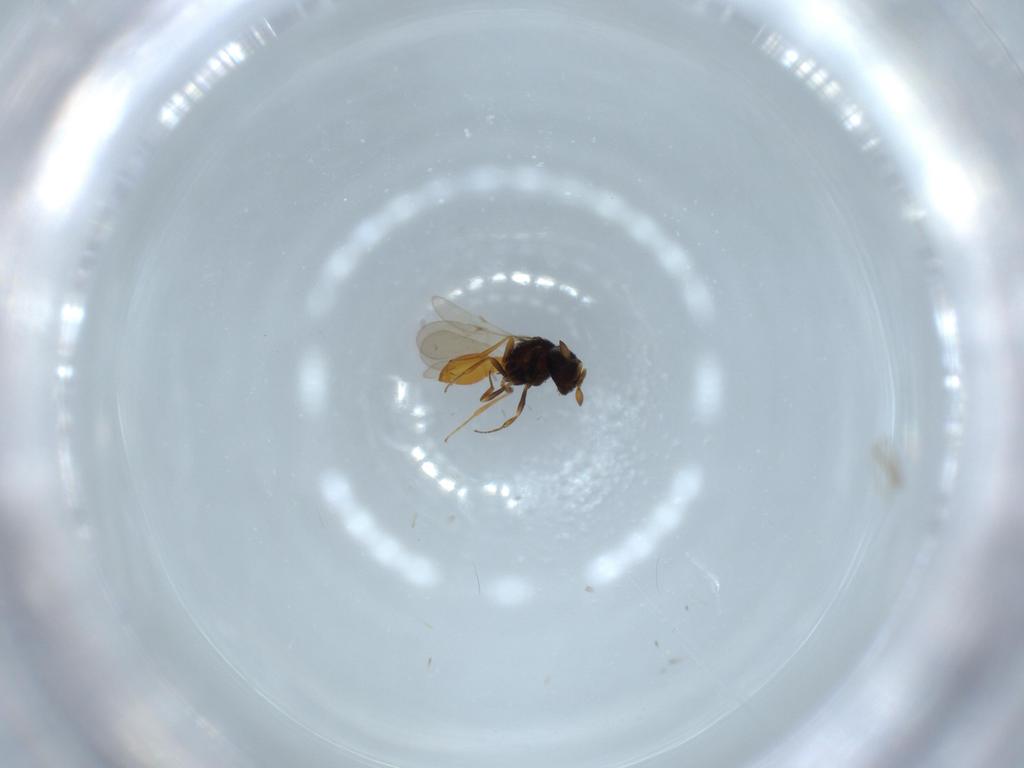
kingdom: Animalia
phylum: Arthropoda
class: Insecta
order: Hymenoptera
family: Scelionidae
